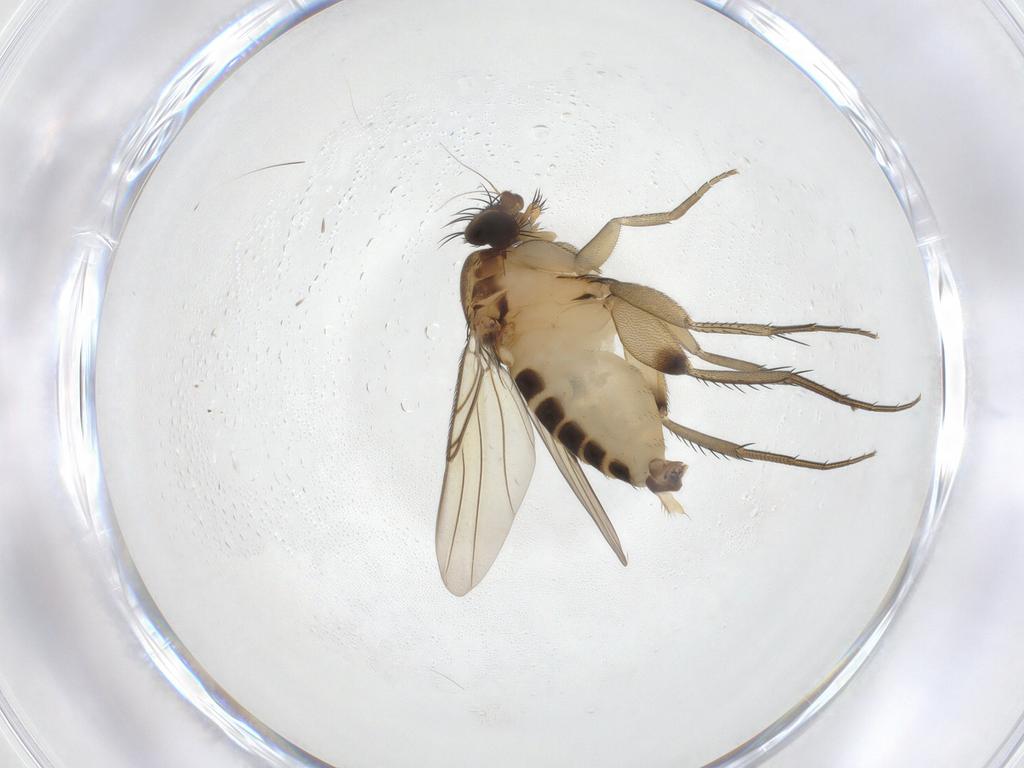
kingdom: Animalia
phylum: Arthropoda
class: Insecta
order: Diptera
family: Phoridae
